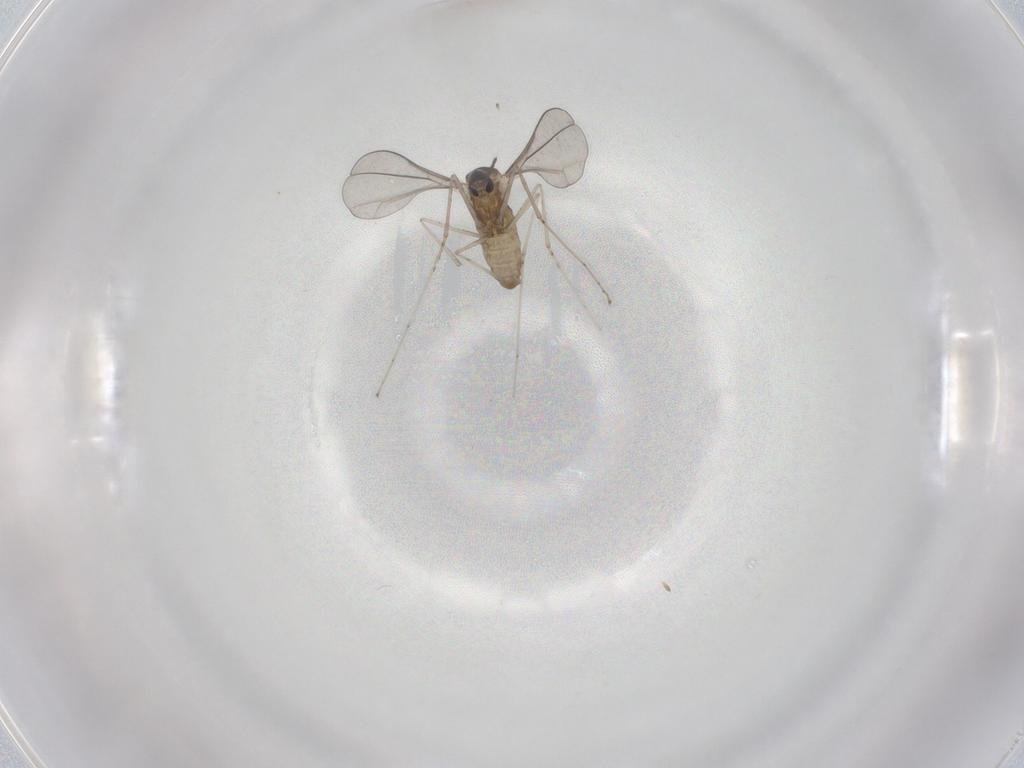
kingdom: Animalia
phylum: Arthropoda
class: Insecta
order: Diptera
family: Cecidomyiidae
